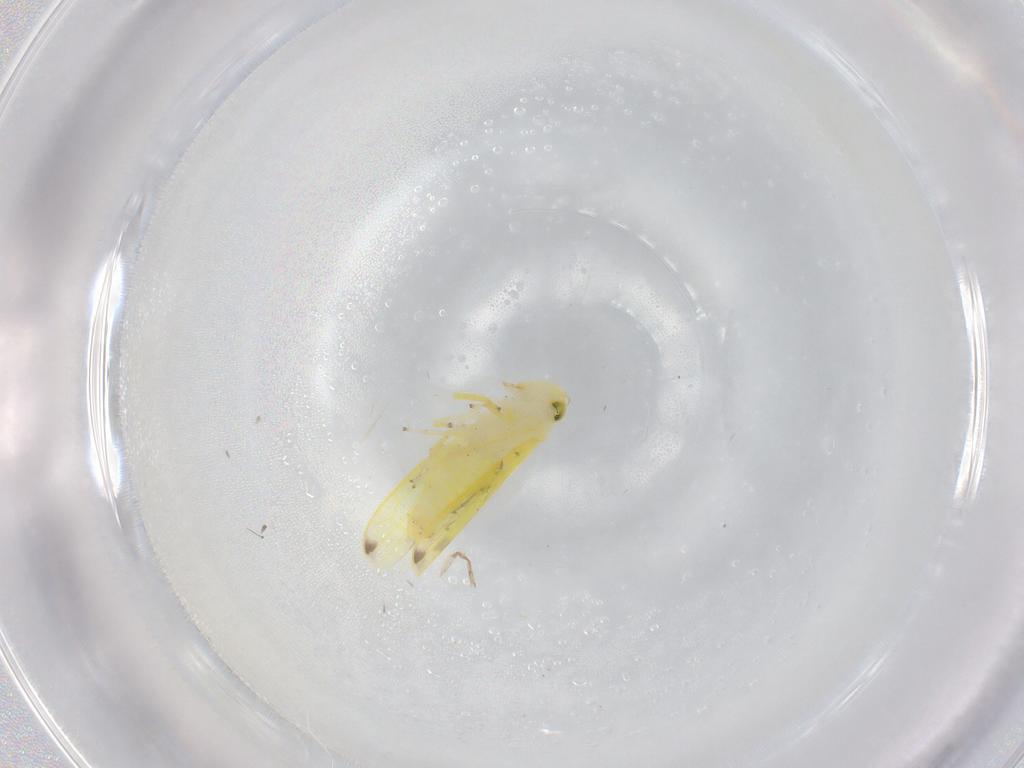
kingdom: Animalia
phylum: Arthropoda
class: Insecta
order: Hemiptera
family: Cicadellidae
